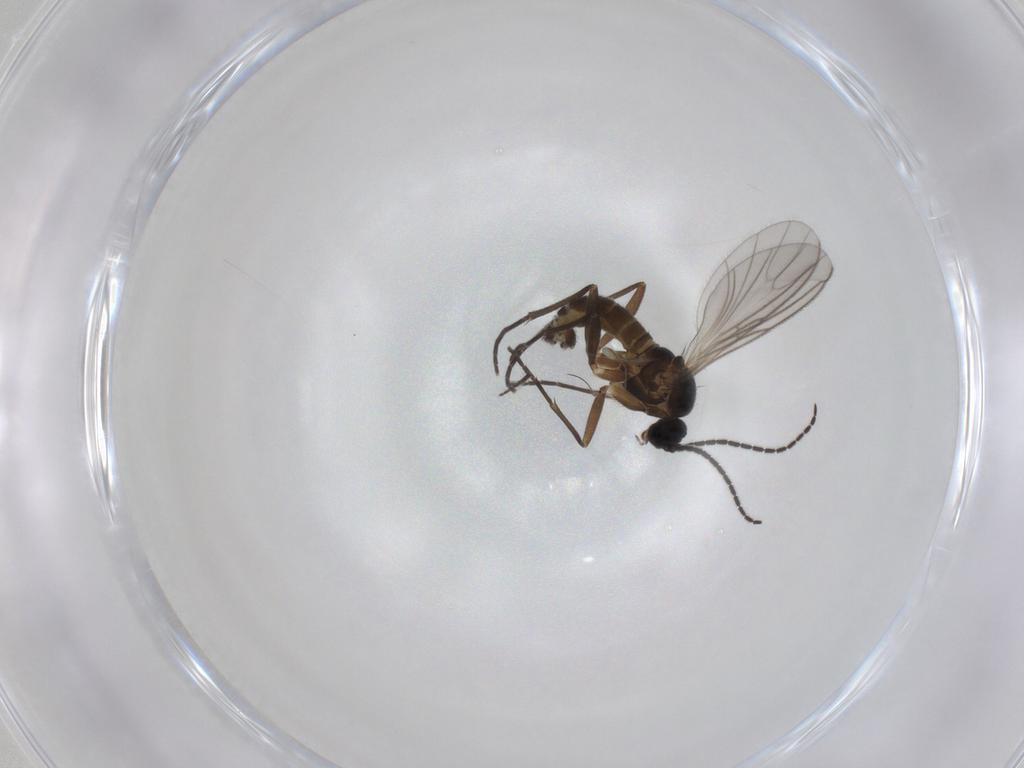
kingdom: Animalia
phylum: Arthropoda
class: Insecta
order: Diptera
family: Sciaridae
